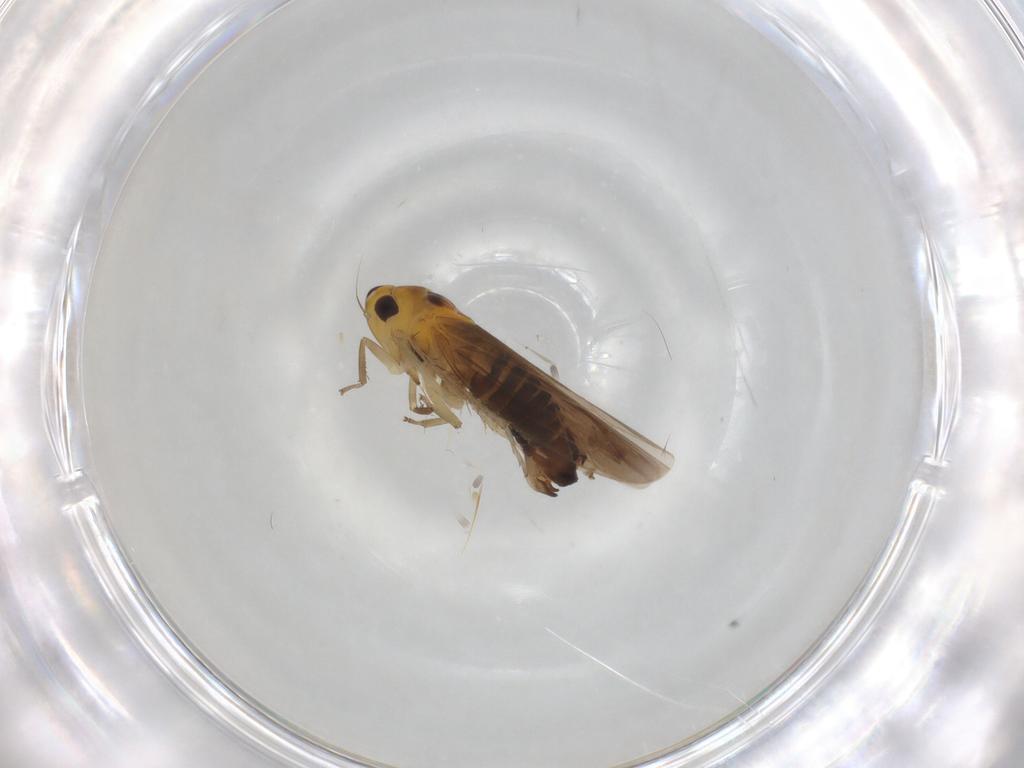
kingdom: Animalia
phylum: Arthropoda
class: Insecta
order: Hemiptera
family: Cicadellidae
